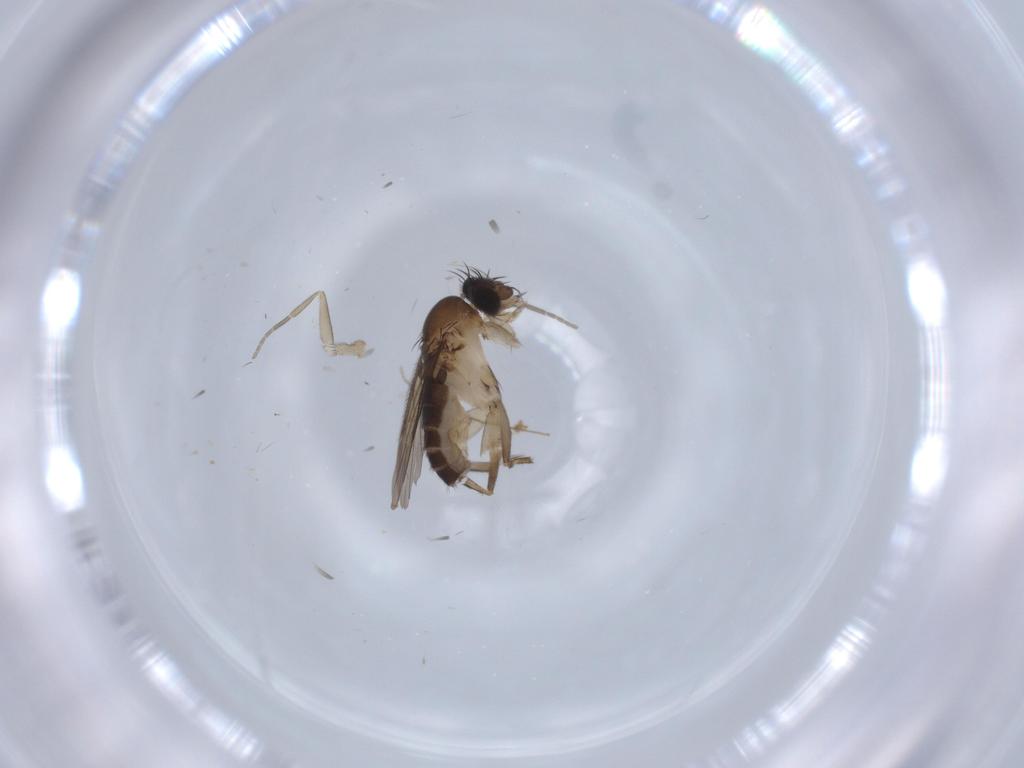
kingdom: Animalia
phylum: Arthropoda
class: Insecta
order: Diptera
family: Phoridae
